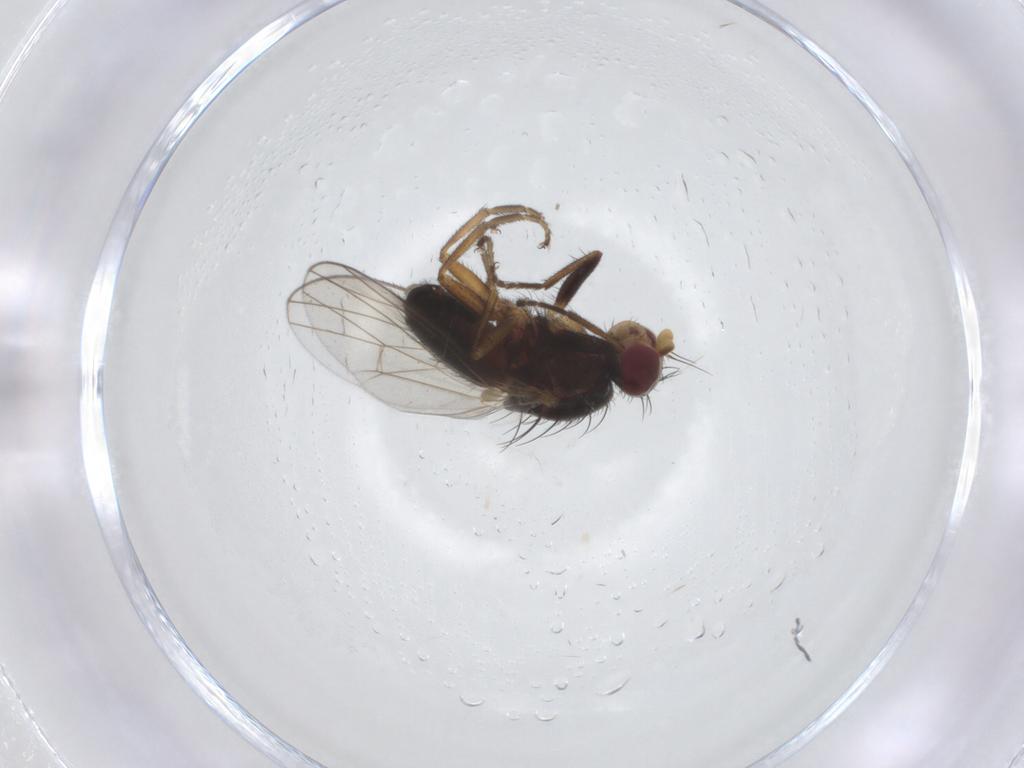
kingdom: Animalia
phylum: Arthropoda
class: Insecta
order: Diptera
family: Heleomyzidae
